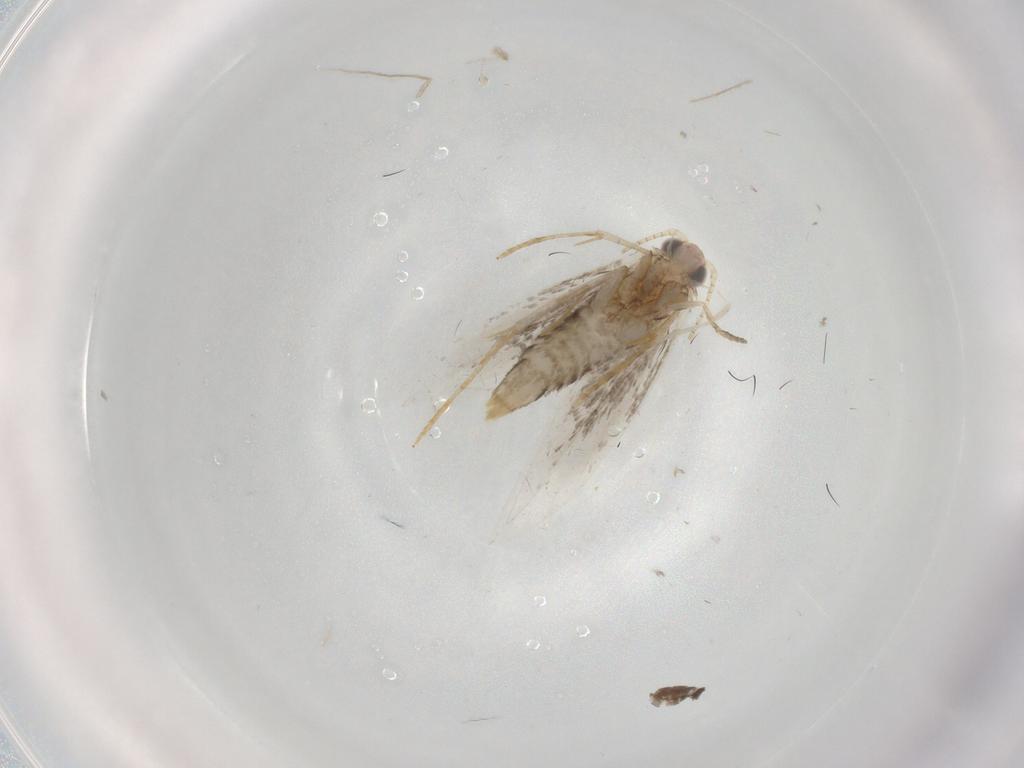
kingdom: Animalia
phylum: Arthropoda
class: Insecta
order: Lepidoptera
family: Tineidae
